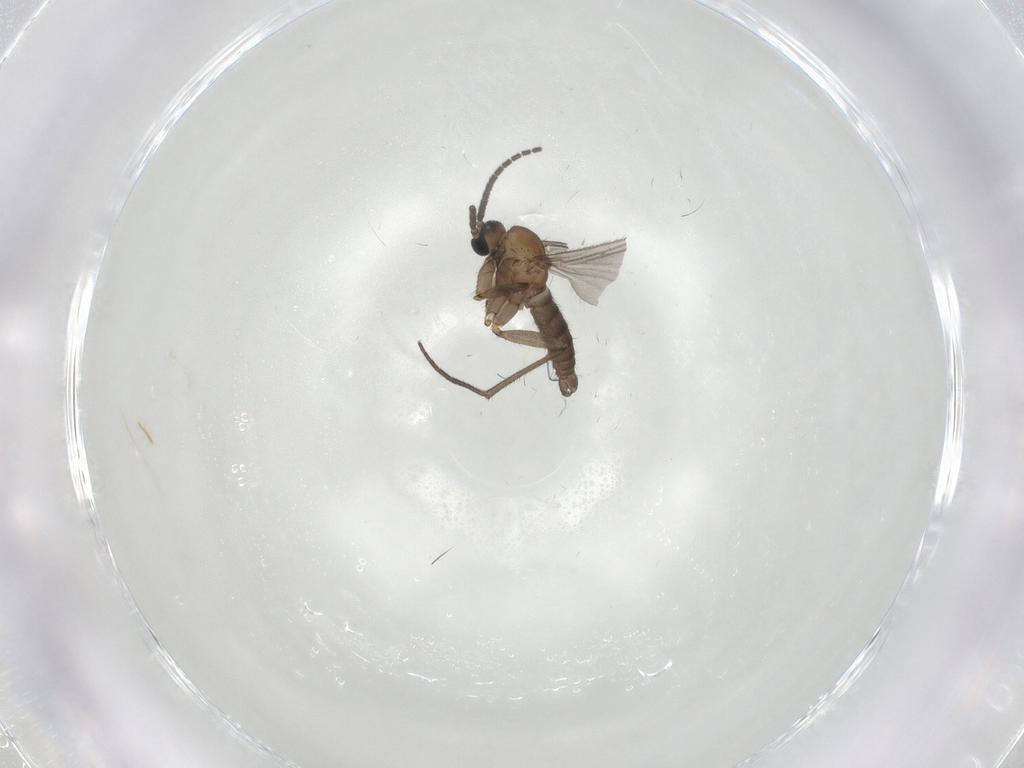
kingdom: Animalia
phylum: Arthropoda
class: Insecta
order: Diptera
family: Sciaridae
